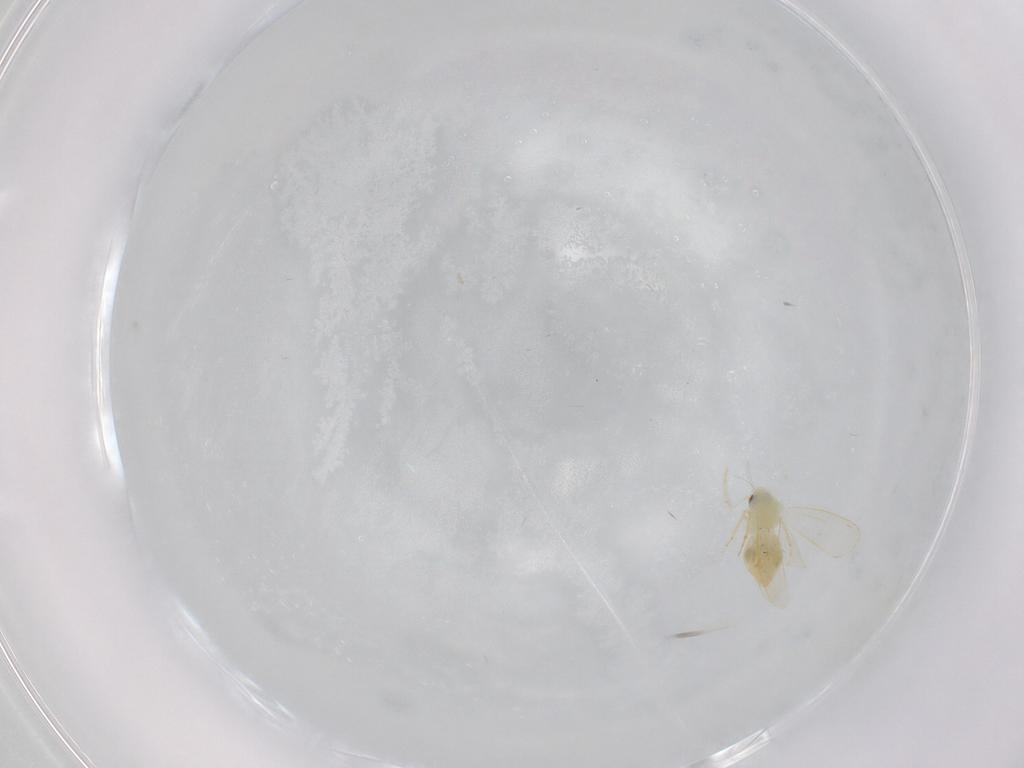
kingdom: Animalia
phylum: Arthropoda
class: Insecta
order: Hemiptera
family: Aleyrodidae
